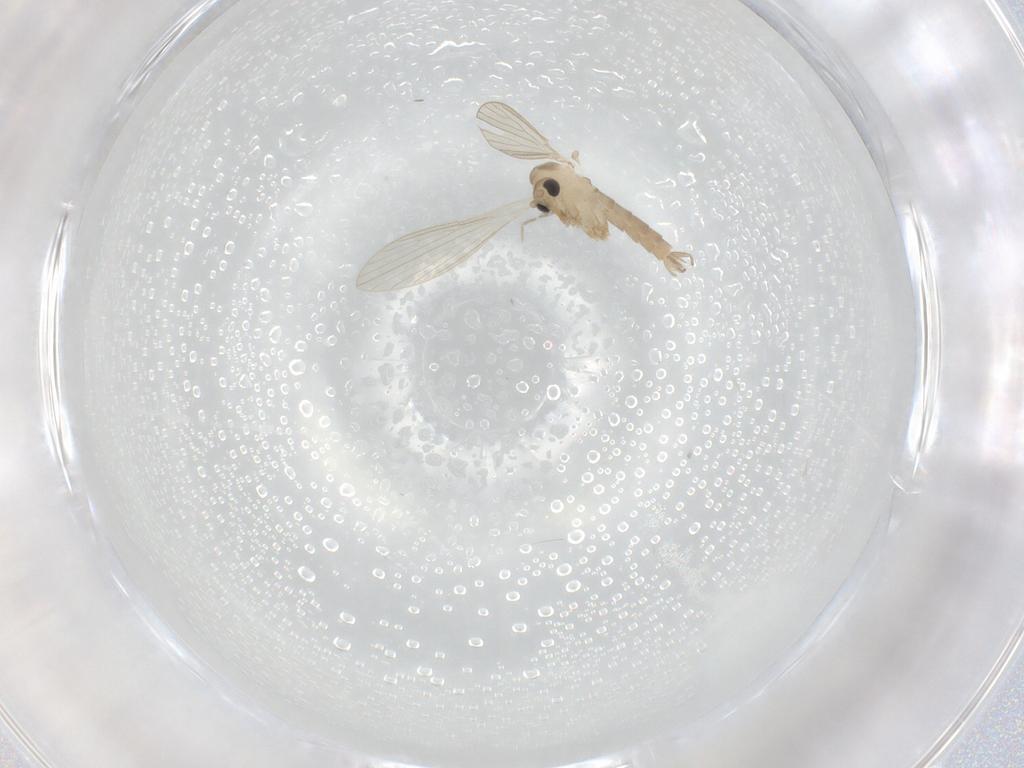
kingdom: Animalia
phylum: Arthropoda
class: Insecta
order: Diptera
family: Psychodidae
